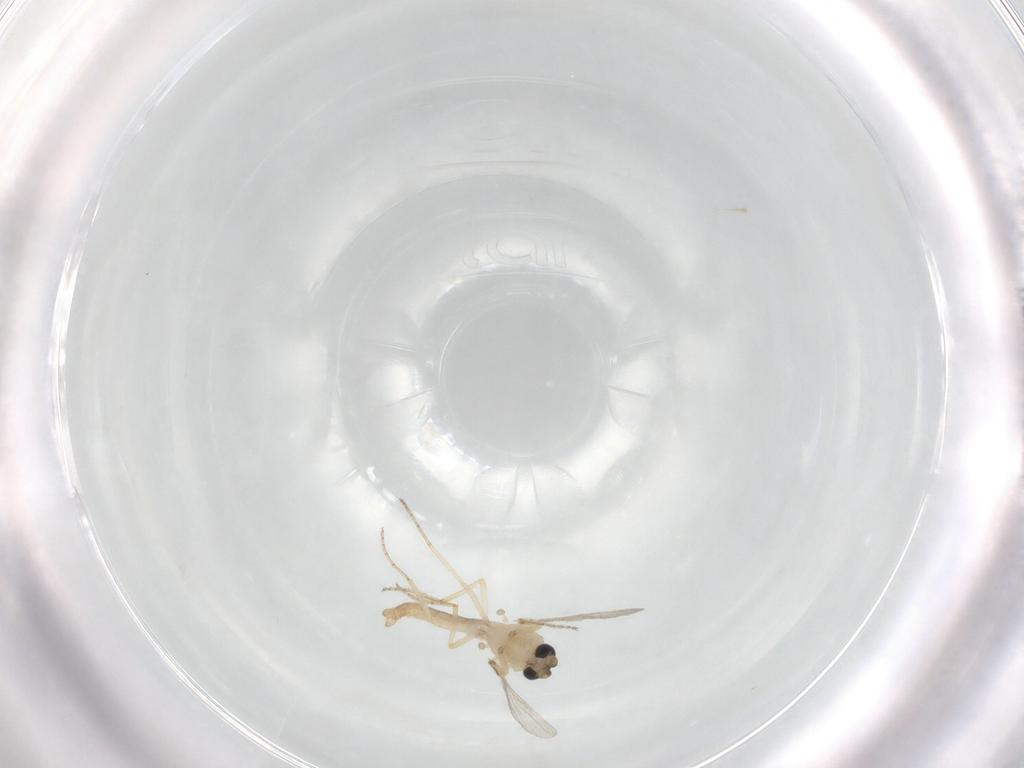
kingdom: Animalia
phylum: Arthropoda
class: Insecta
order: Diptera
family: Ceratopogonidae
